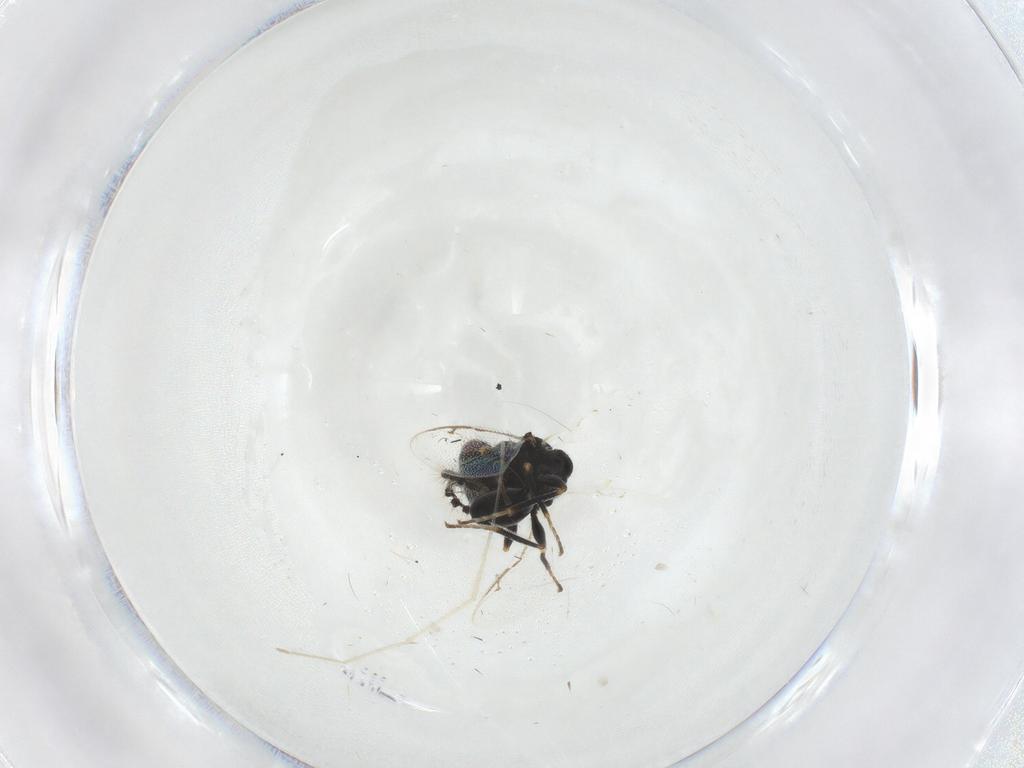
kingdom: Animalia
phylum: Arthropoda
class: Insecta
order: Hymenoptera
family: Eurytomidae
